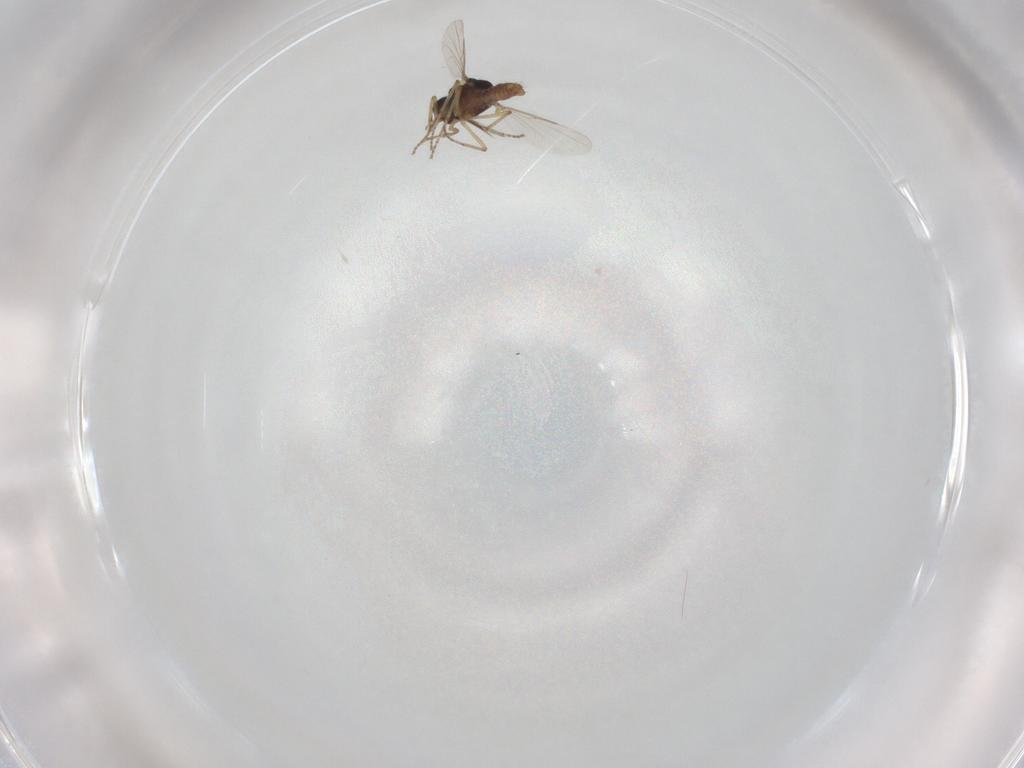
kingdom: Animalia
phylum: Arthropoda
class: Insecta
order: Diptera
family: Ceratopogonidae
